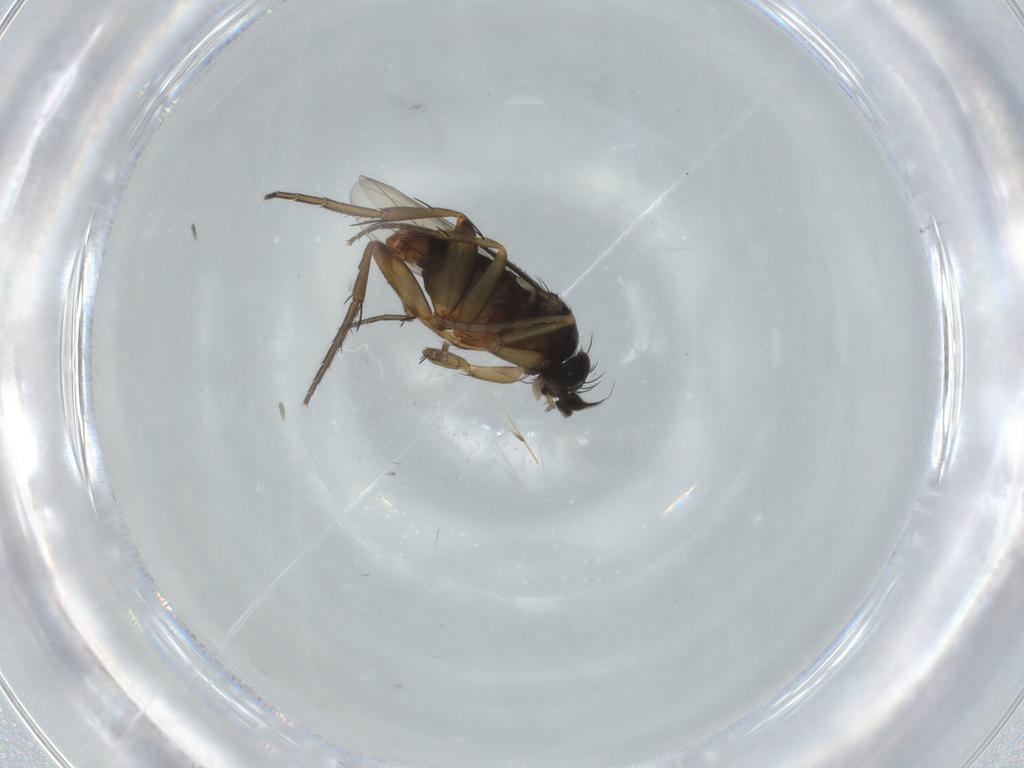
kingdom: Animalia
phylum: Arthropoda
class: Insecta
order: Diptera
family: Phoridae
